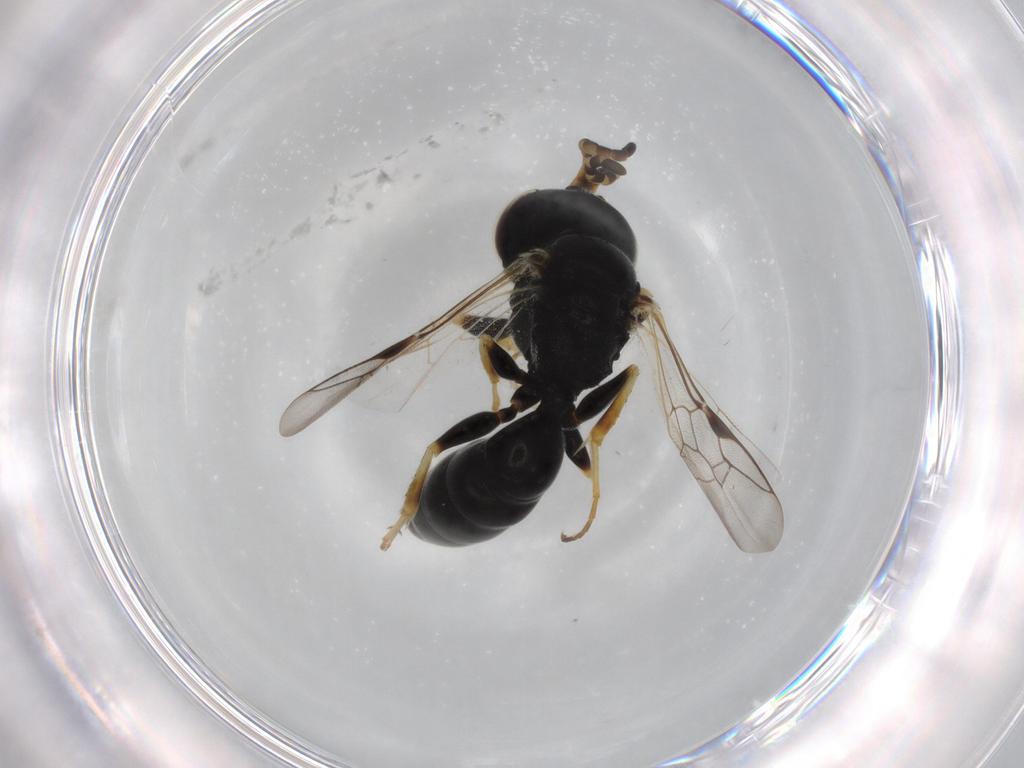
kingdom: Animalia
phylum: Arthropoda
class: Insecta
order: Hymenoptera
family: Crabronidae
